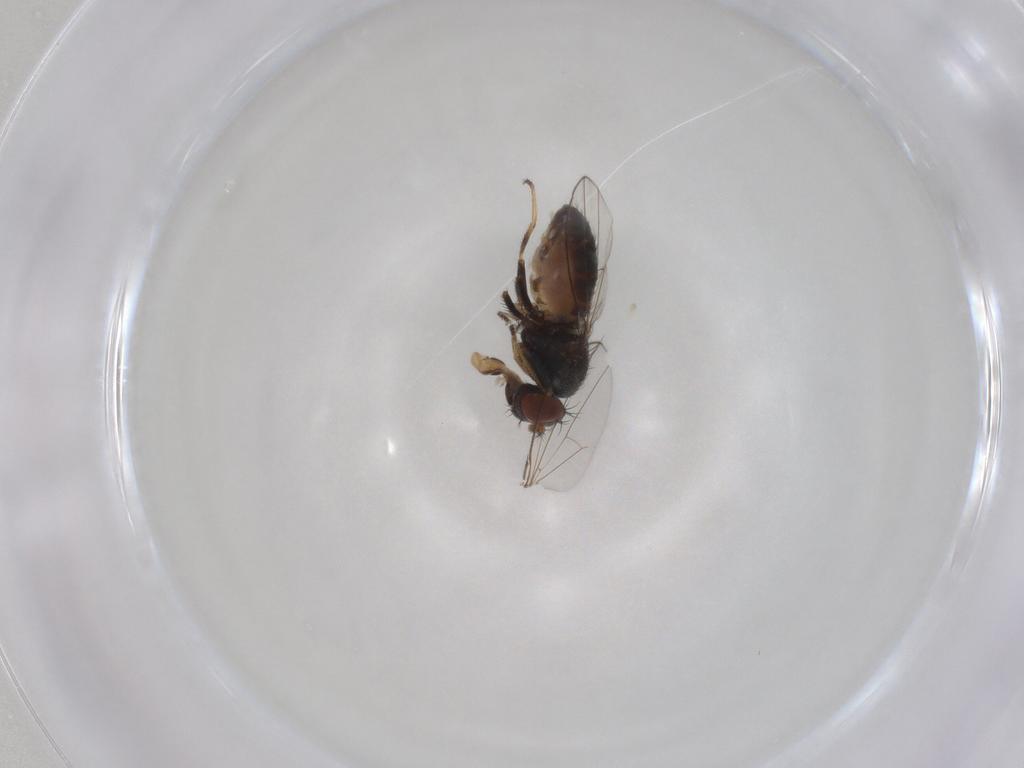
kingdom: Animalia
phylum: Arthropoda
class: Insecta
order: Diptera
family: Ephydridae
